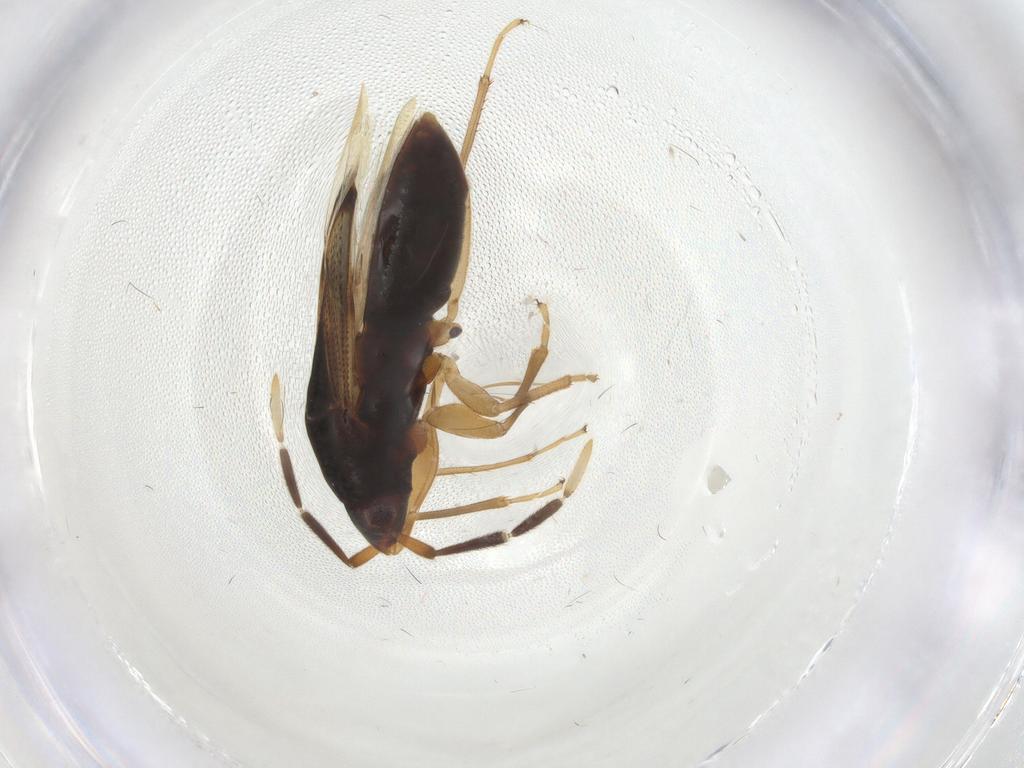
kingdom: Animalia
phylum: Arthropoda
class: Insecta
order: Hemiptera
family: Rhyparochromidae
